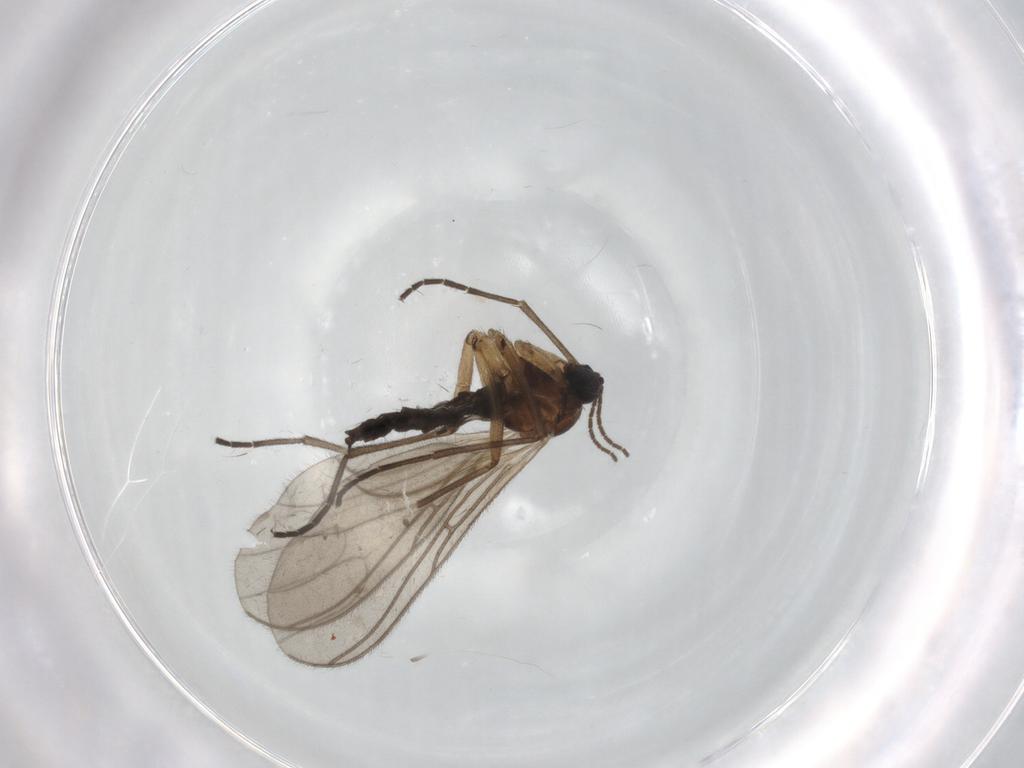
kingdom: Animalia
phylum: Arthropoda
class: Insecta
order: Diptera
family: Sciaridae
